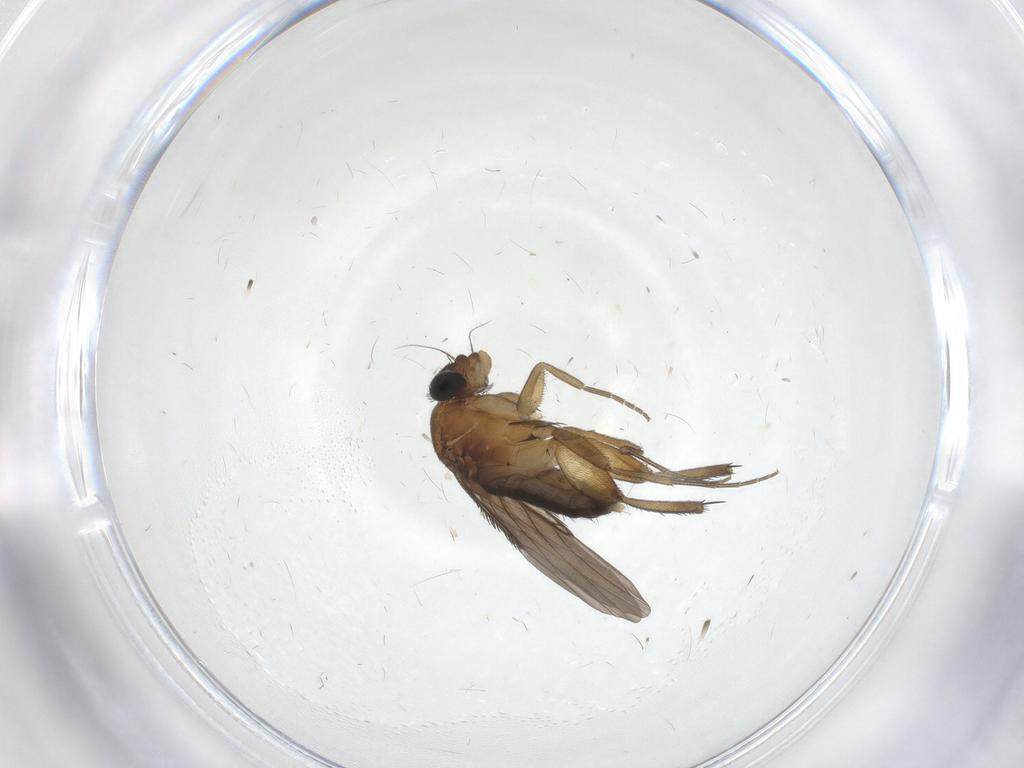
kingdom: Animalia
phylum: Arthropoda
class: Insecta
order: Diptera
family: Phoridae
